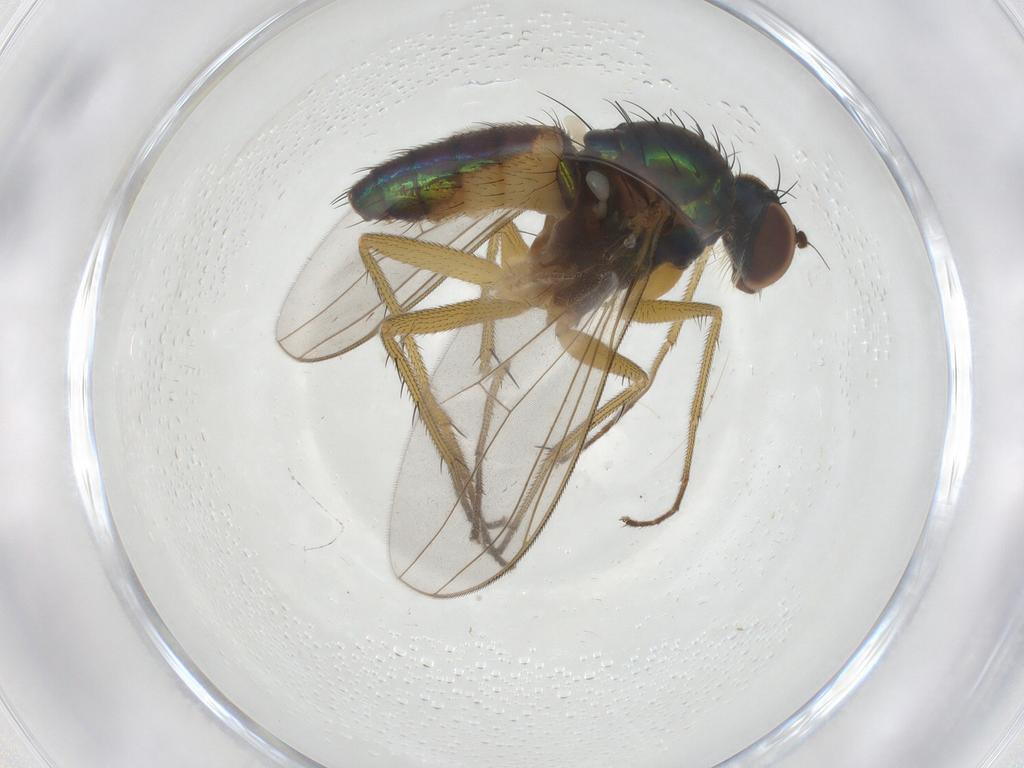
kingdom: Animalia
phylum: Arthropoda
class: Insecta
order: Diptera
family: Dolichopodidae
